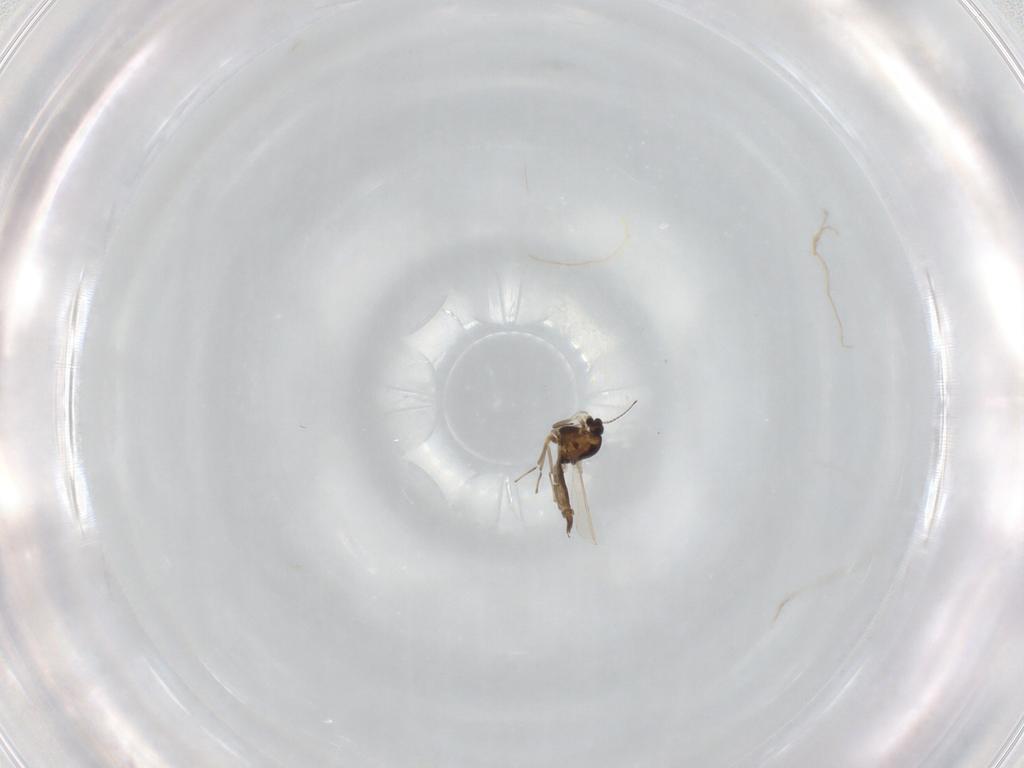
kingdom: Animalia
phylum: Arthropoda
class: Insecta
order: Diptera
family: Chironomidae
